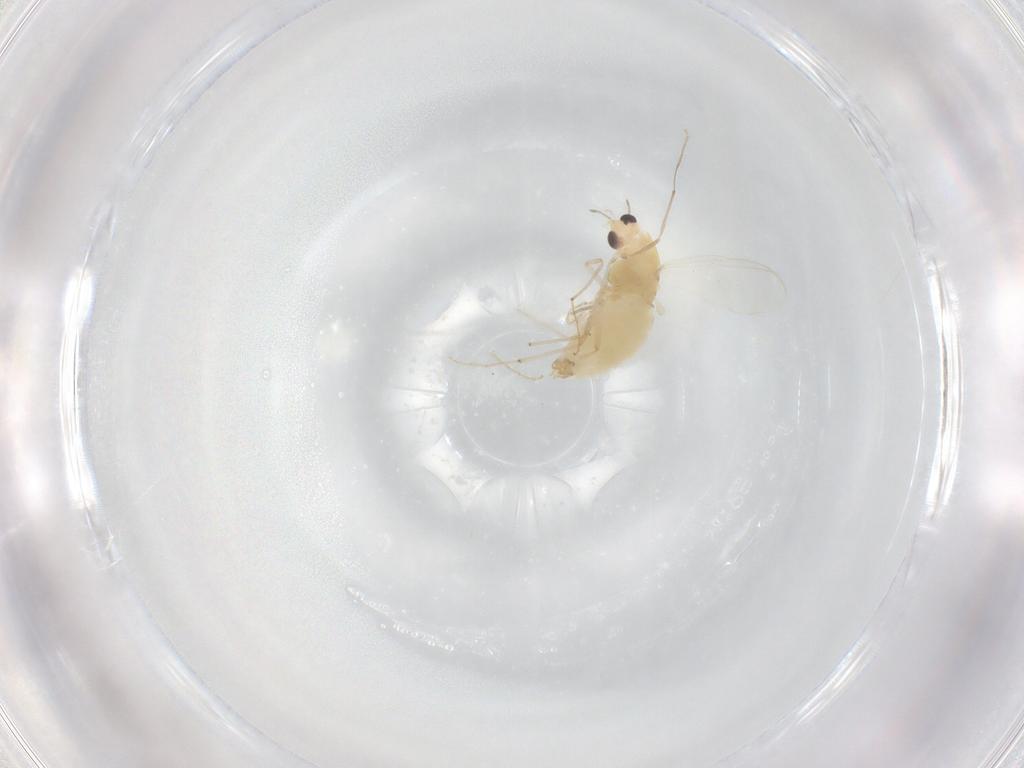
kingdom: Animalia
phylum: Arthropoda
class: Insecta
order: Diptera
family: Chironomidae
